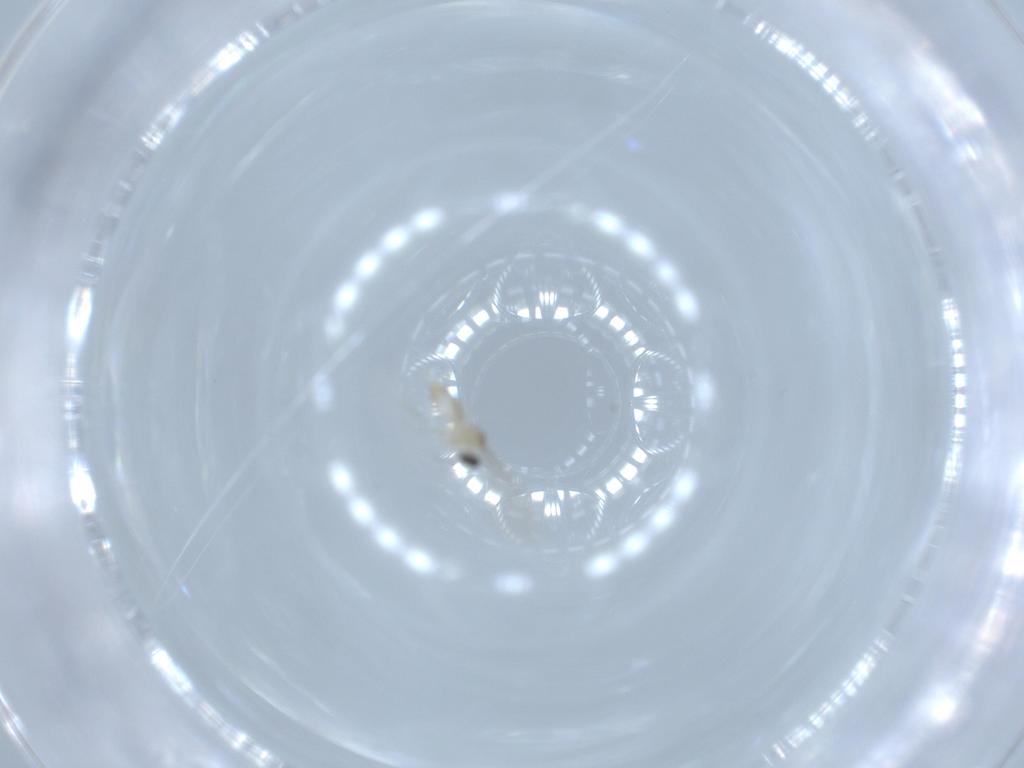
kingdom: Animalia
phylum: Arthropoda
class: Insecta
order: Diptera
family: Cecidomyiidae
